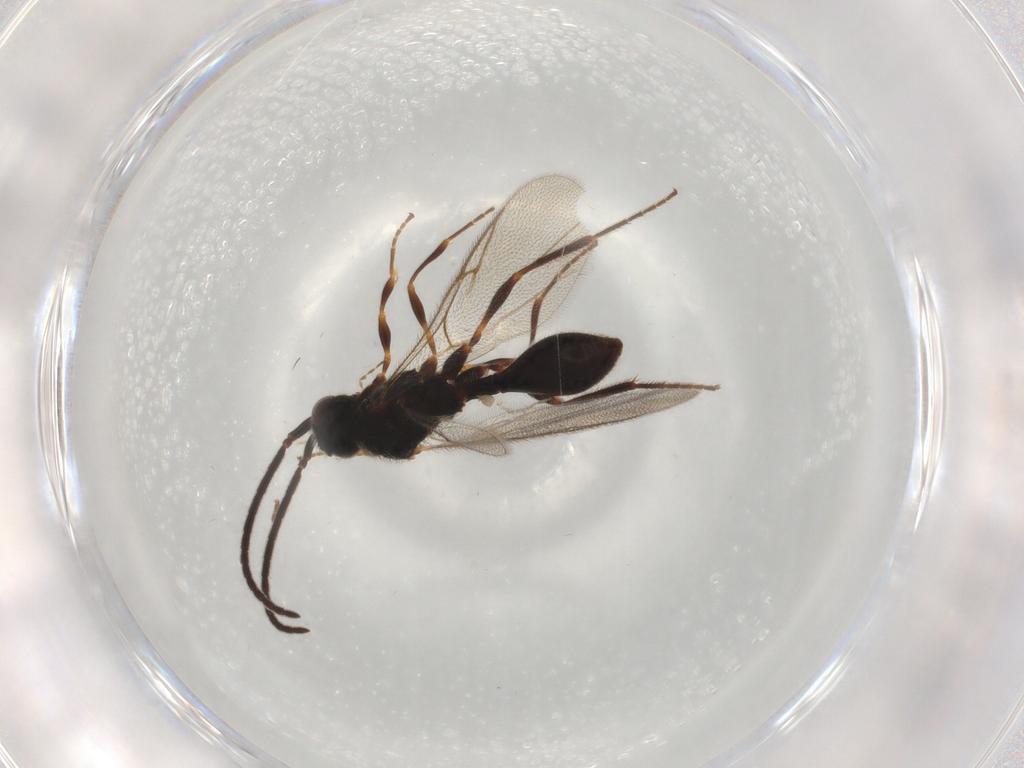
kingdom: Animalia
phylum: Arthropoda
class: Insecta
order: Hymenoptera
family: Diapriidae
